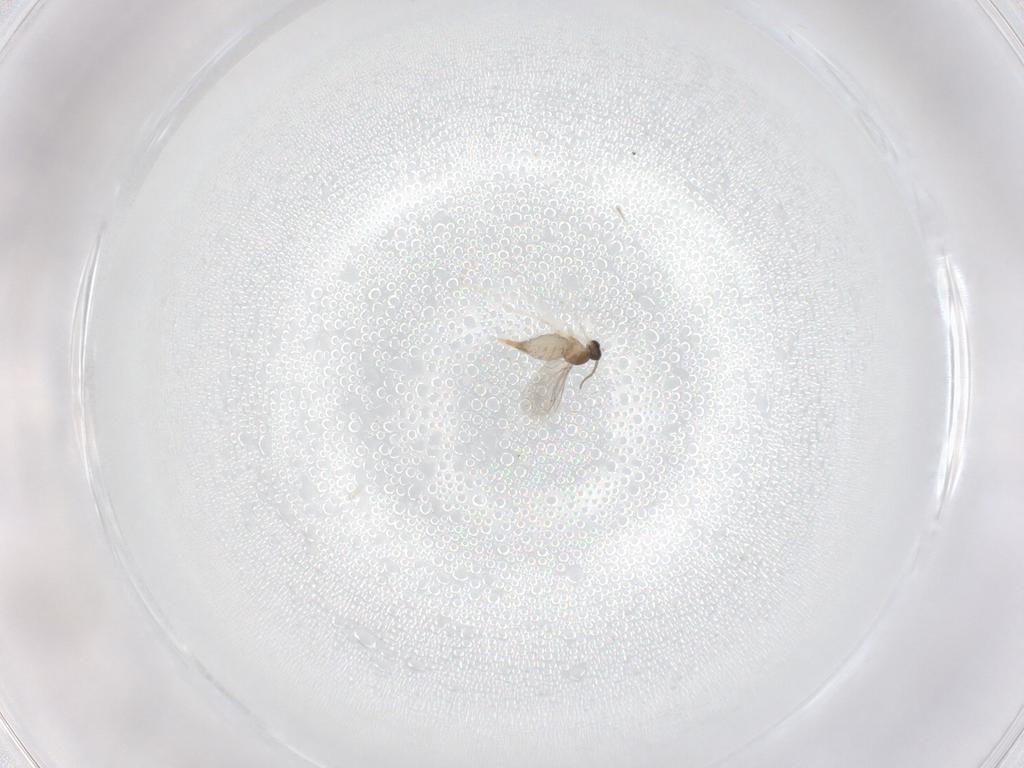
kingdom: Animalia
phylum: Arthropoda
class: Insecta
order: Diptera
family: Cecidomyiidae
